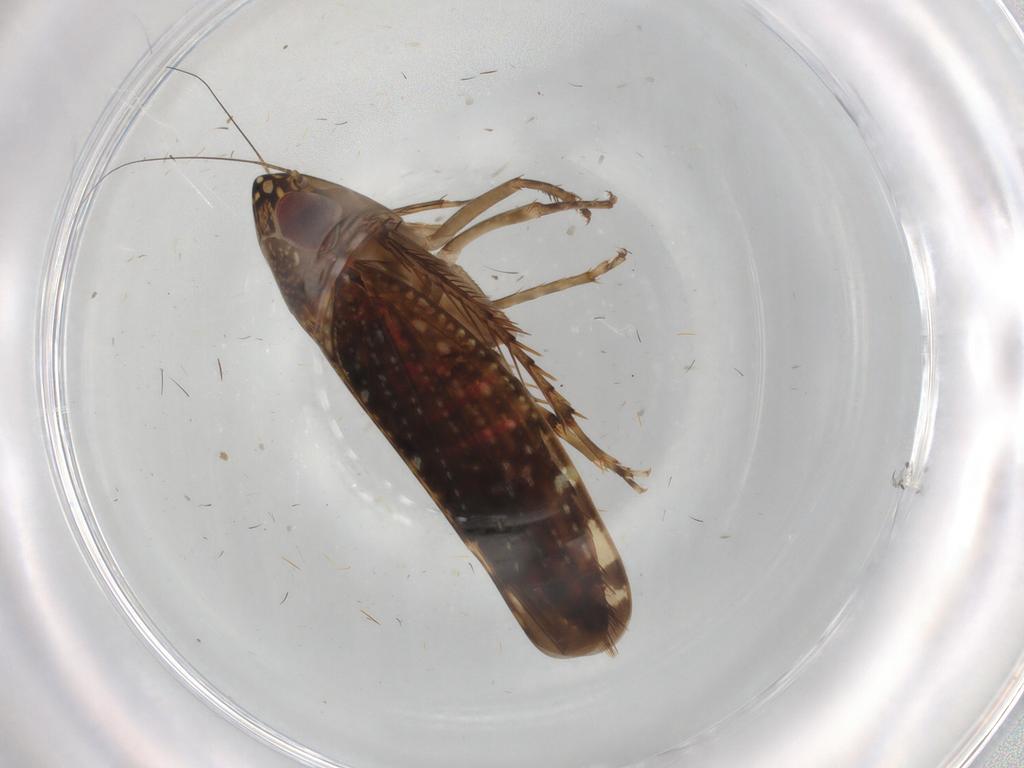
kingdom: Animalia
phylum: Arthropoda
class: Insecta
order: Hemiptera
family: Cicadellidae
